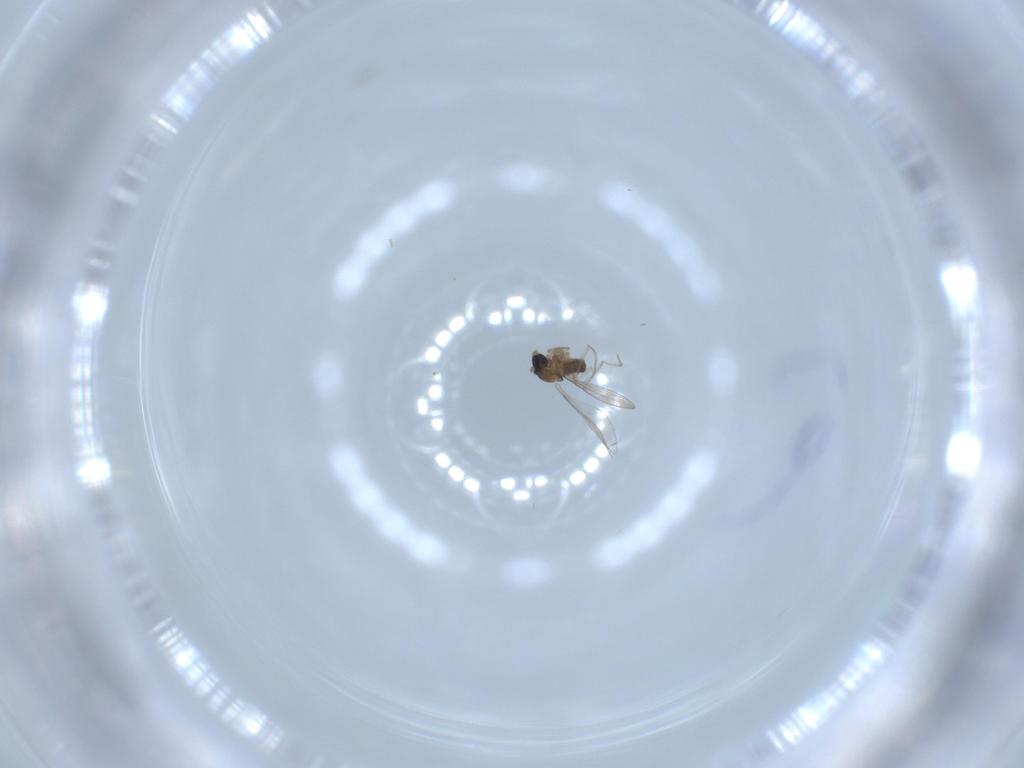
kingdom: Animalia
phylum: Arthropoda
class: Insecta
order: Diptera
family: Cecidomyiidae
